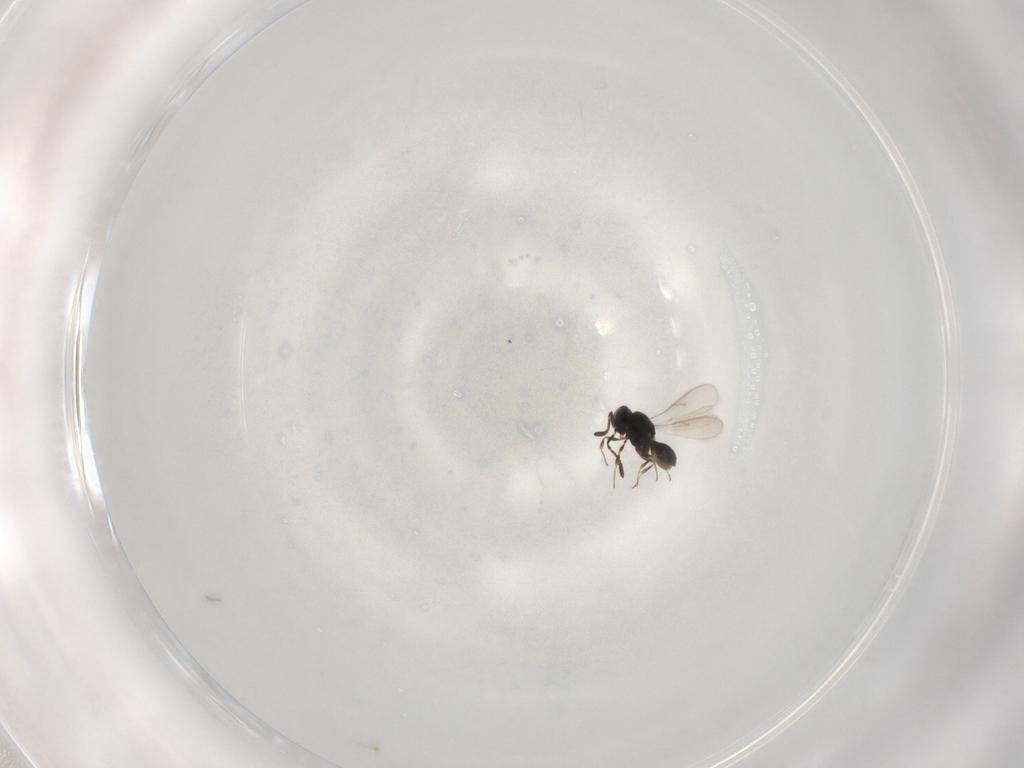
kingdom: Animalia
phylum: Arthropoda
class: Insecta
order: Hymenoptera
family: Scelionidae
